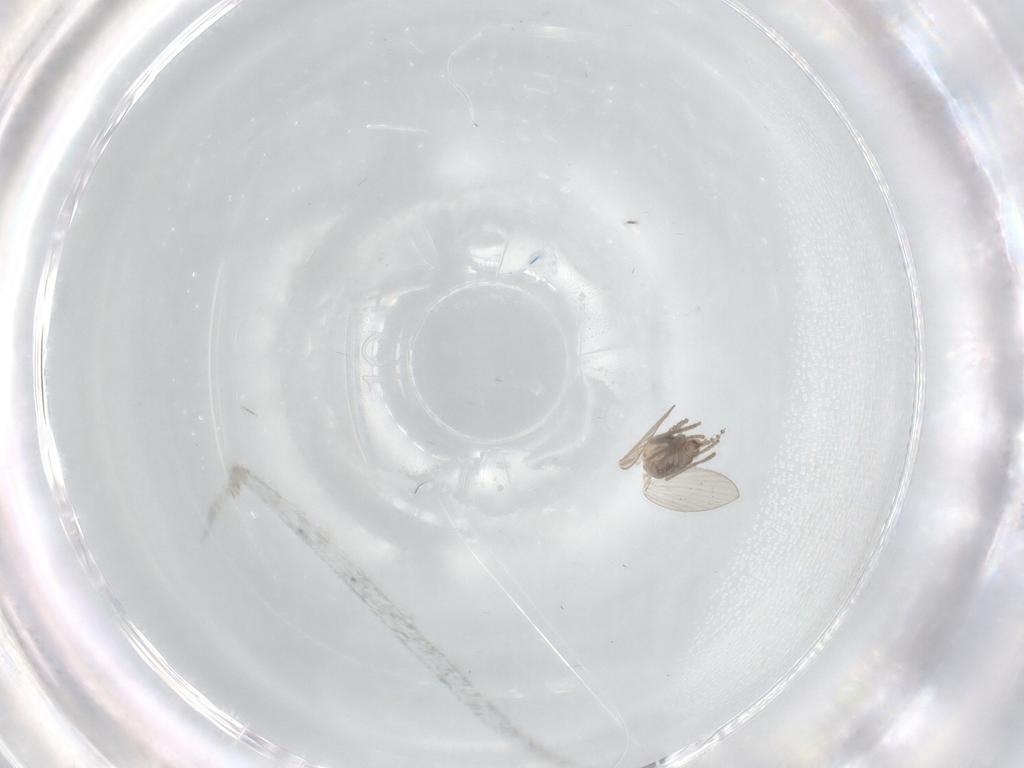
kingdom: Animalia
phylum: Arthropoda
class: Insecta
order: Diptera
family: Psychodidae
